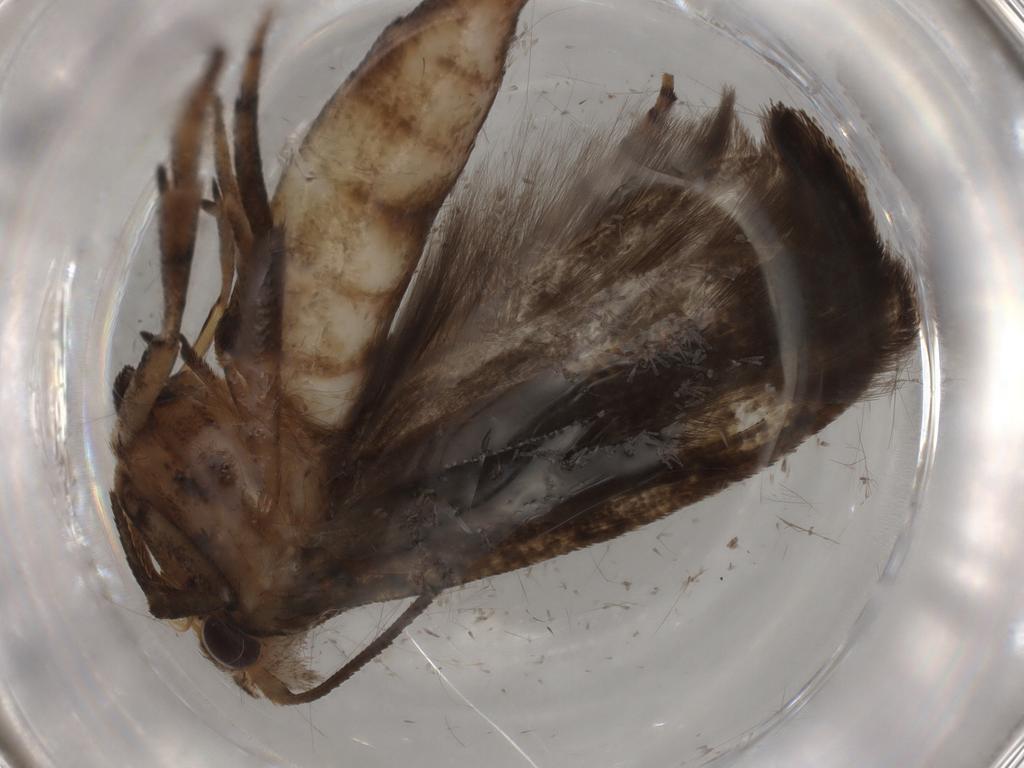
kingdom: Animalia
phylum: Arthropoda
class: Insecta
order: Lepidoptera
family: Yponomeutidae
